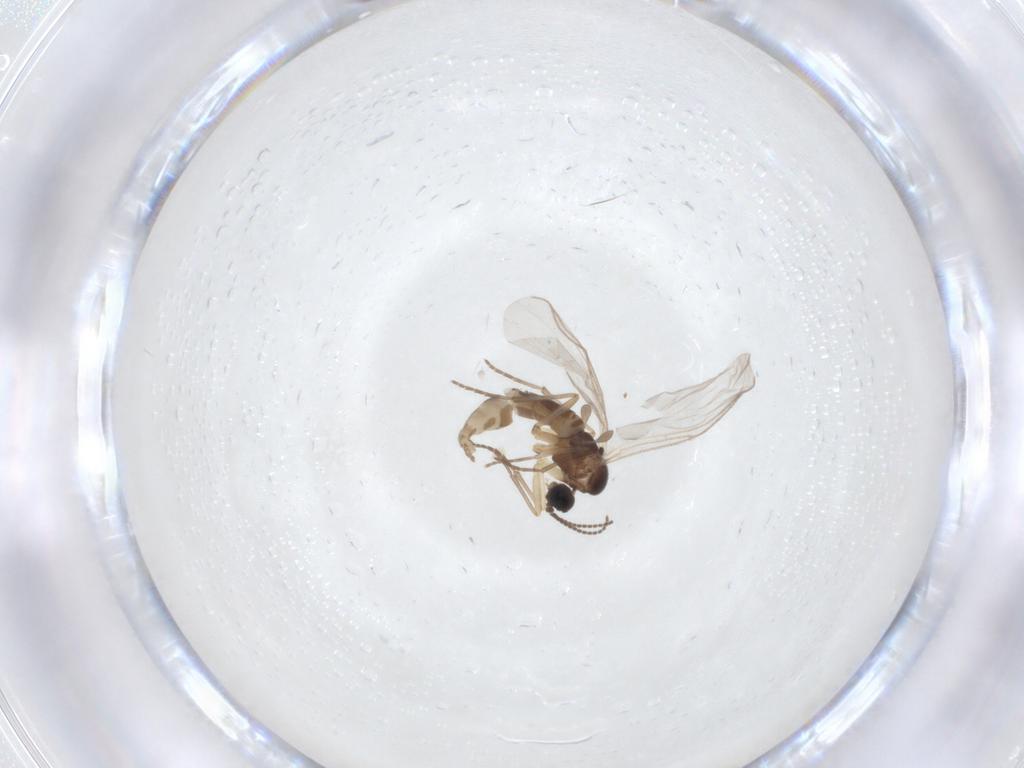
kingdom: Animalia
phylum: Arthropoda
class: Insecta
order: Diptera
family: Sciaridae
